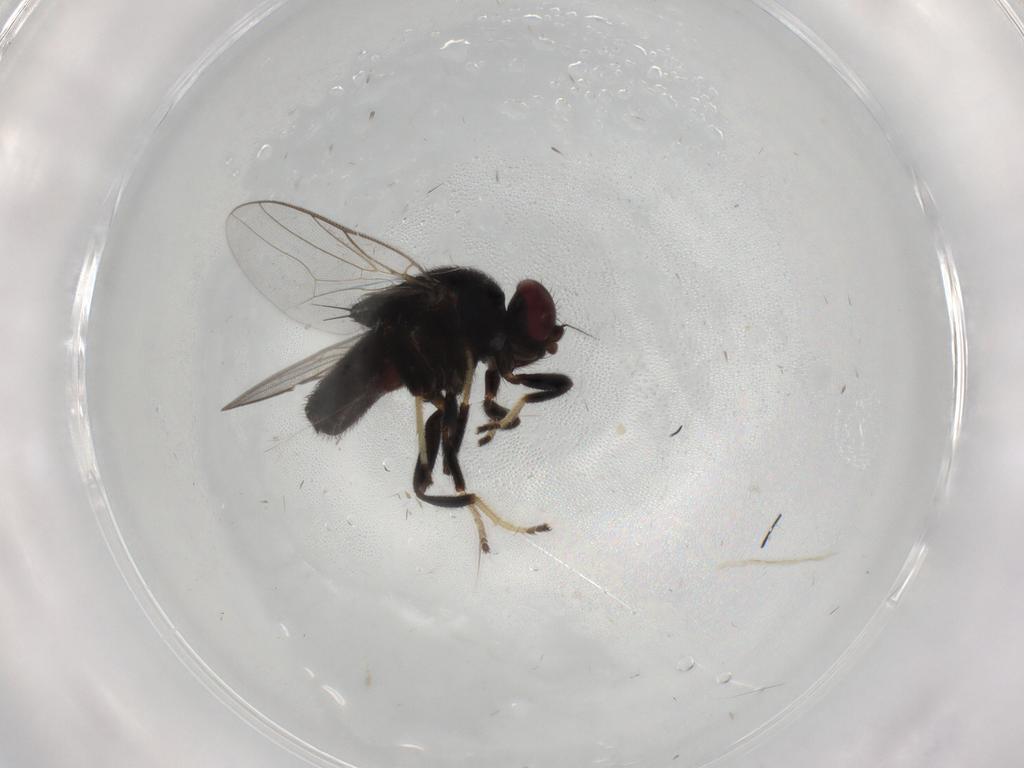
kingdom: Animalia
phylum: Arthropoda
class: Insecta
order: Diptera
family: Chloropidae
